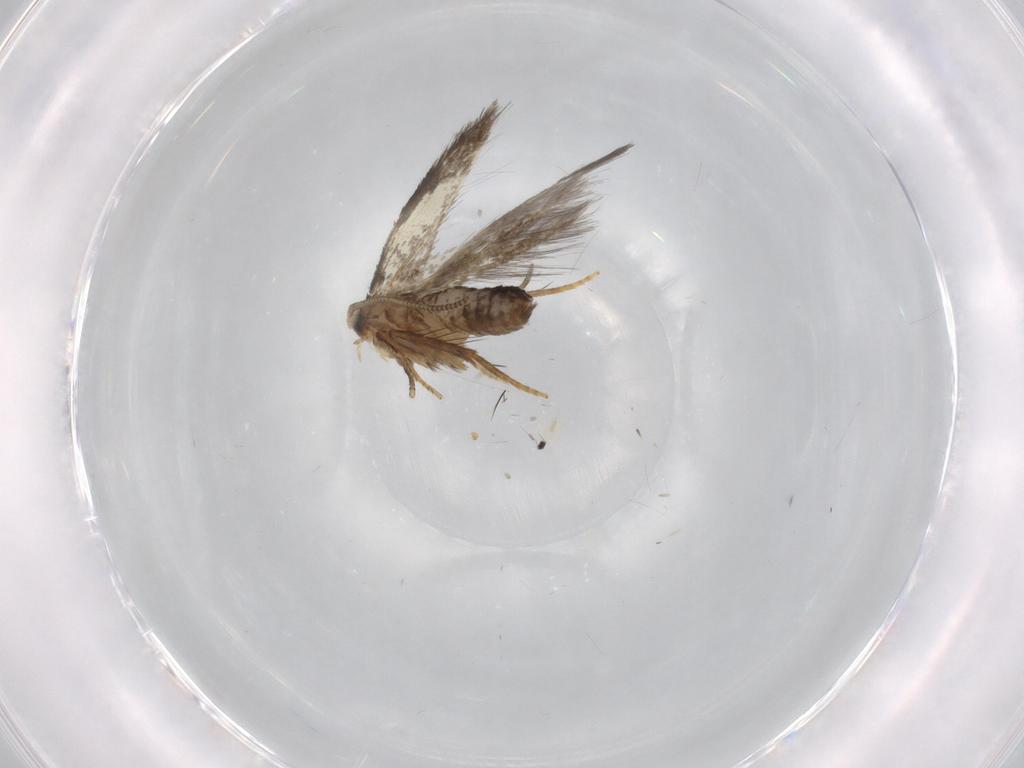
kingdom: Animalia
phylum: Arthropoda
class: Insecta
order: Lepidoptera
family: Nepticulidae
